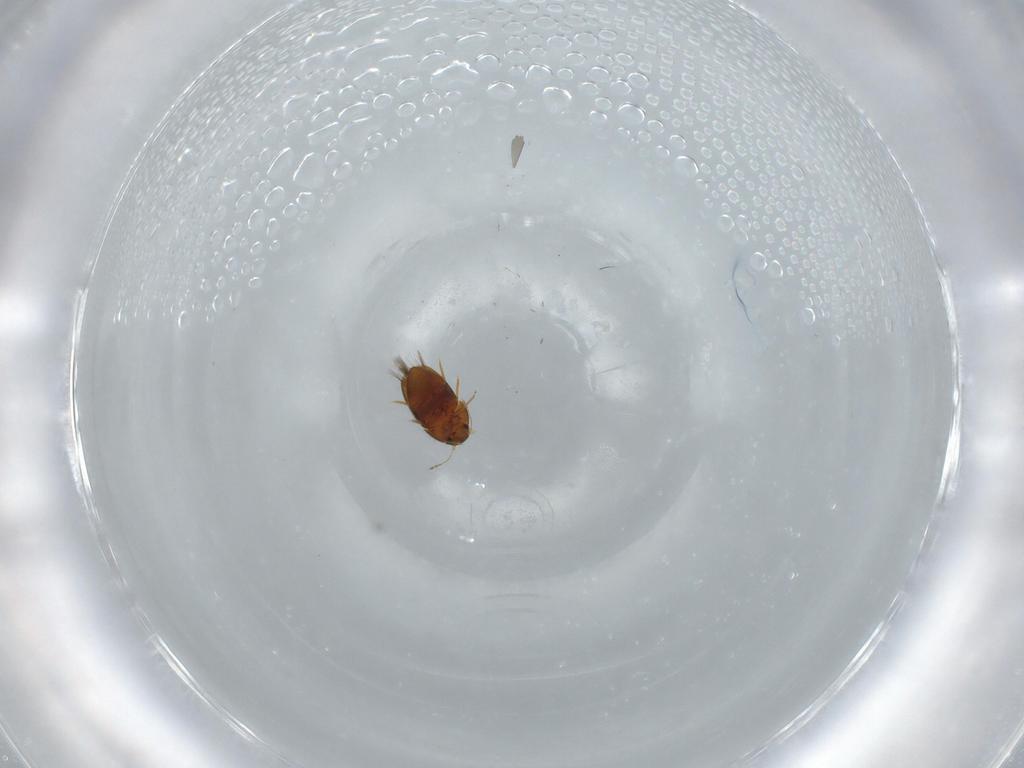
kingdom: Animalia
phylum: Arthropoda
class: Insecta
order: Coleoptera
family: Ptiliidae
